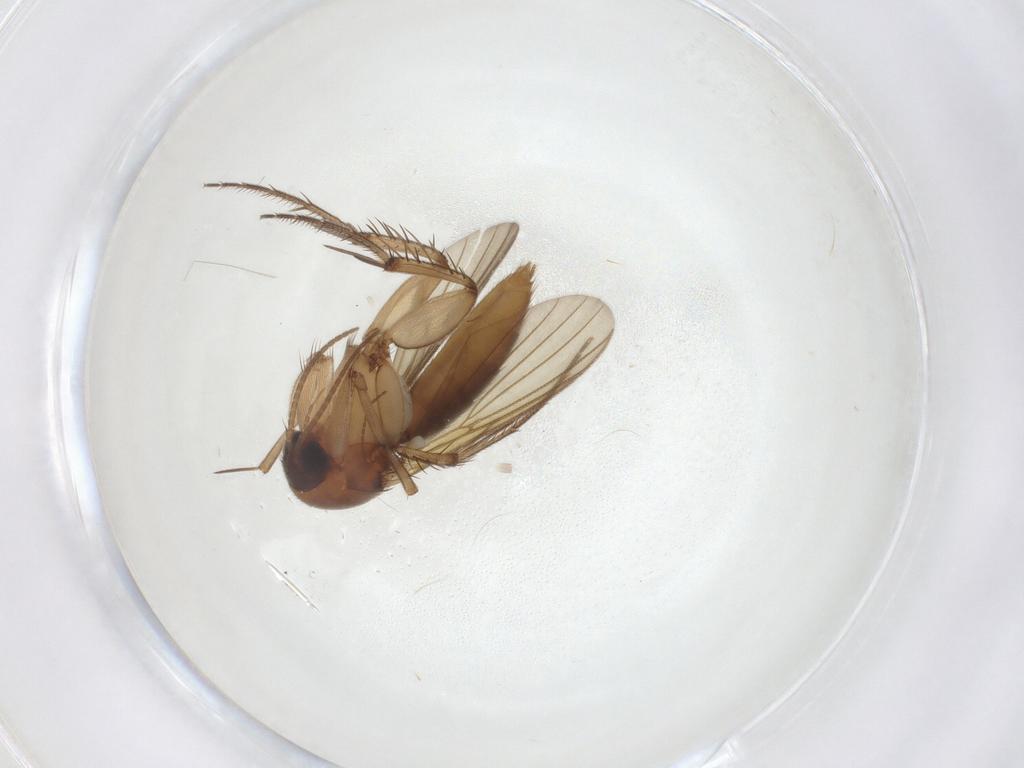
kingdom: Animalia
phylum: Arthropoda
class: Insecta
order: Diptera
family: Mycetophilidae
